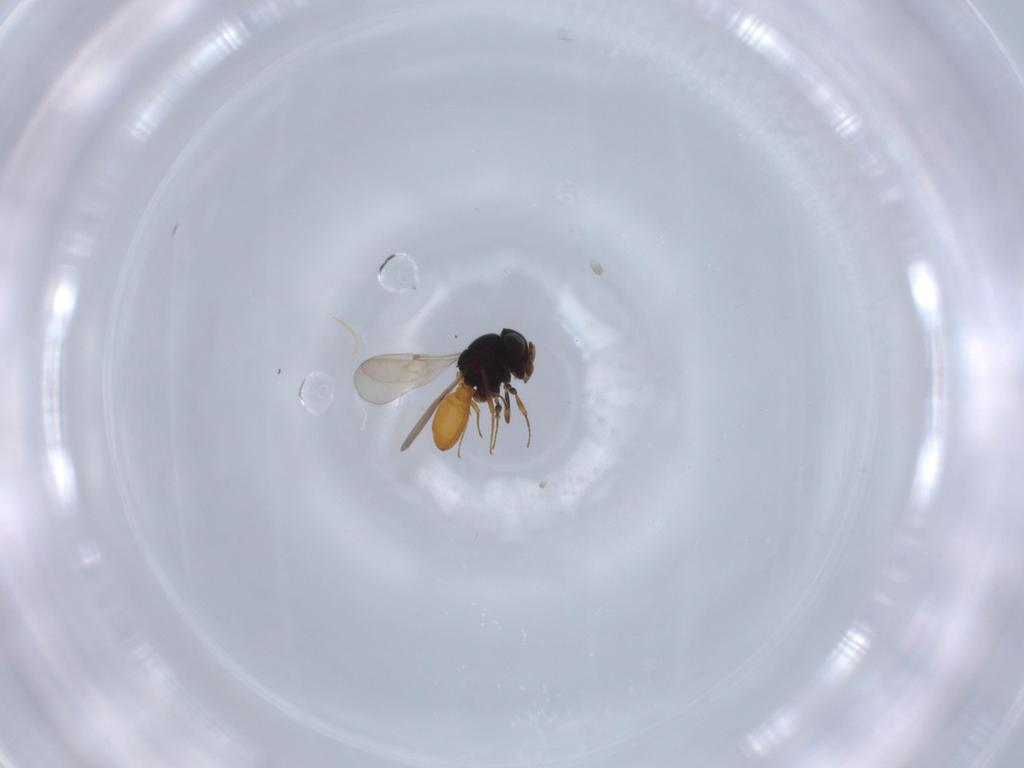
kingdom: Animalia
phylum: Arthropoda
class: Insecta
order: Hymenoptera
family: Scelionidae
